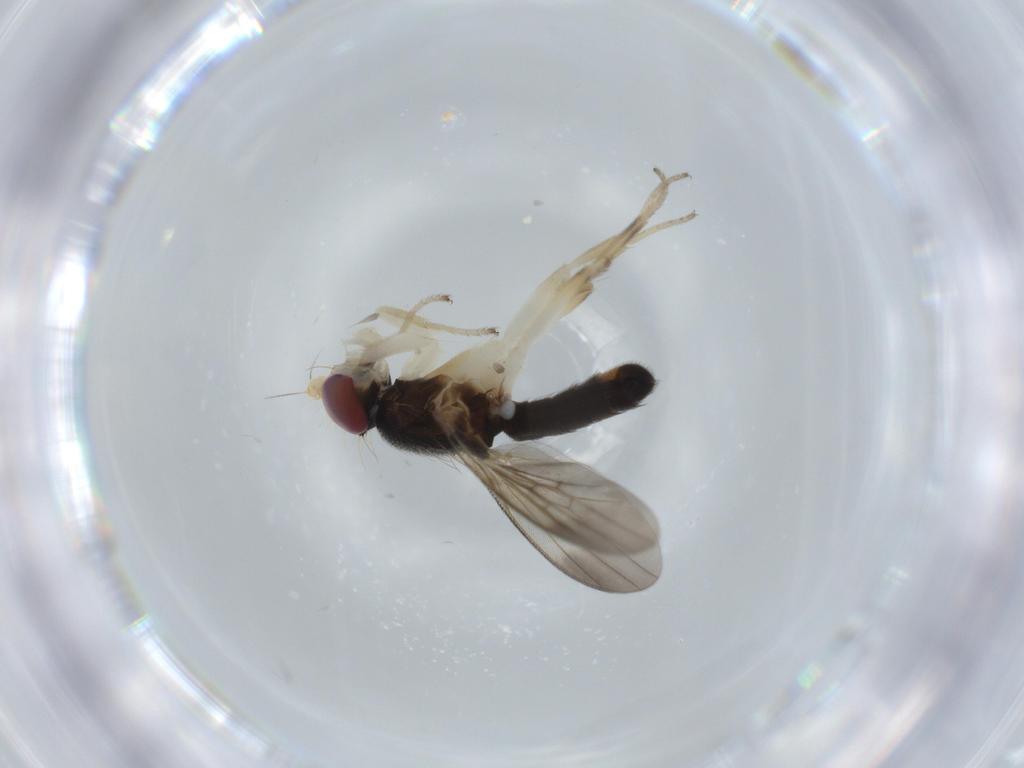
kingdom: Animalia
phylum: Arthropoda
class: Insecta
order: Diptera
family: Clusiidae
